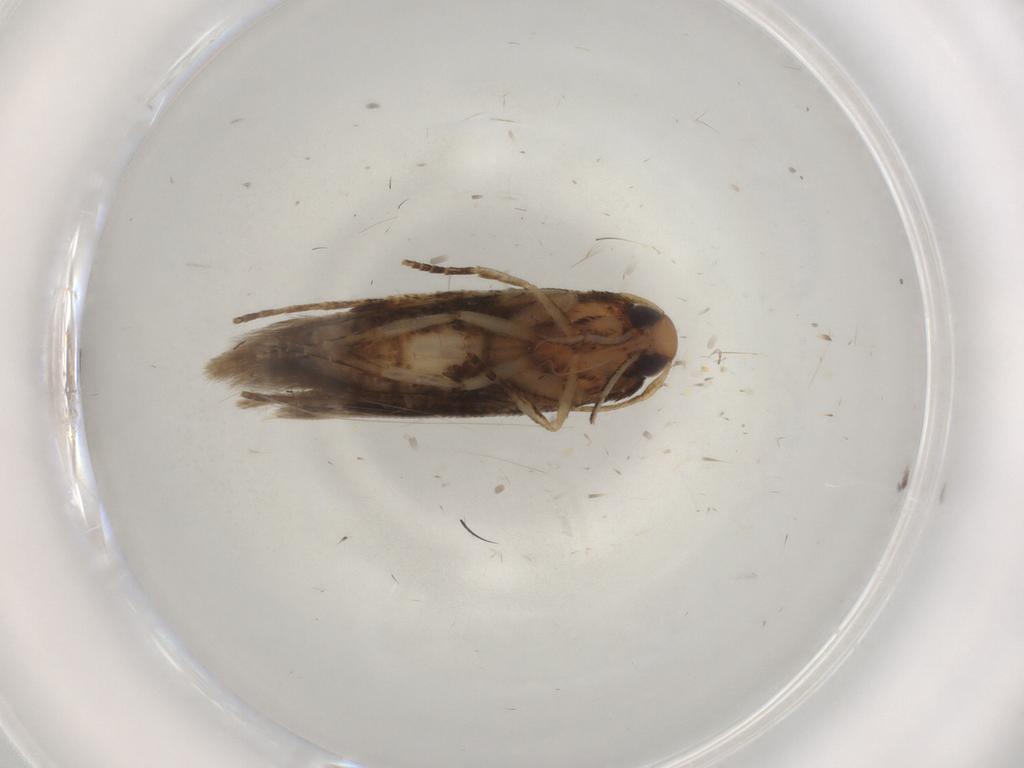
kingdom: Animalia
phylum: Arthropoda
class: Insecta
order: Lepidoptera
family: Cosmopterigidae
